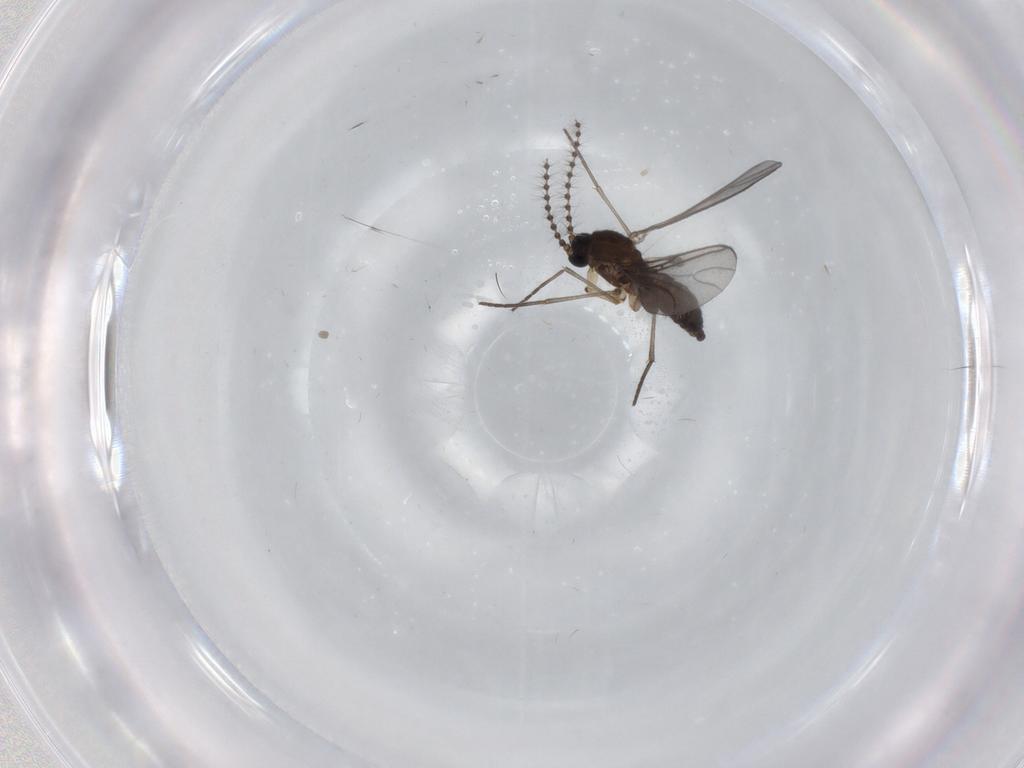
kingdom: Animalia
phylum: Arthropoda
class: Insecta
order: Diptera
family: Sciaridae
